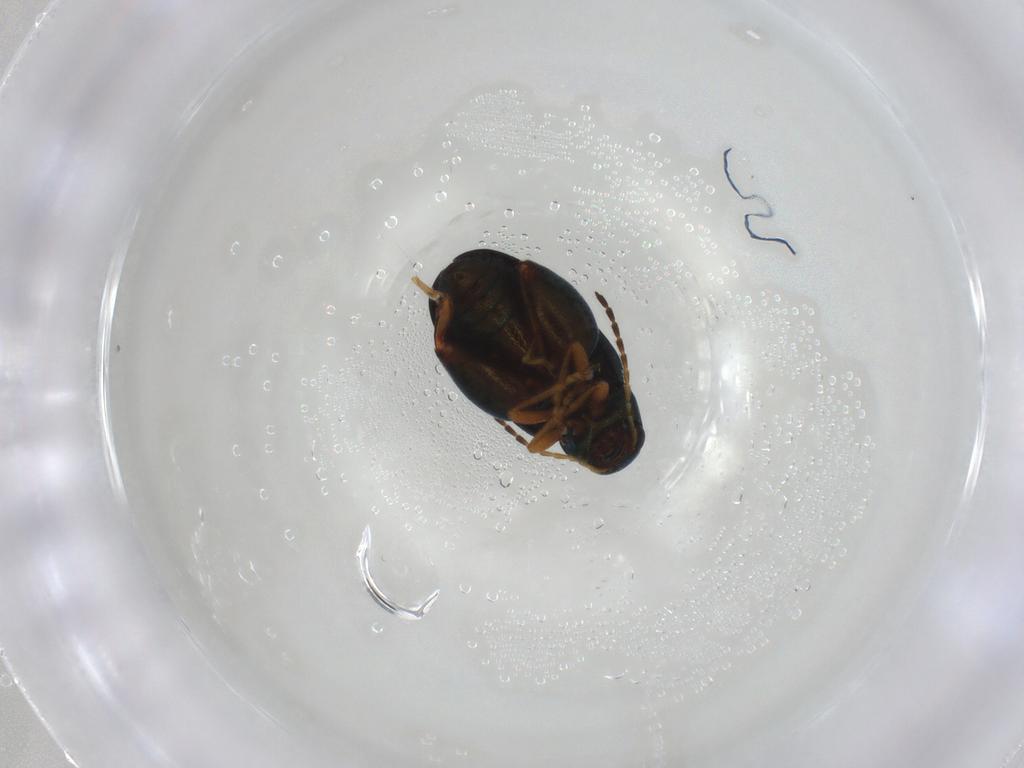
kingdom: Animalia
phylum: Arthropoda
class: Insecta
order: Coleoptera
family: Chrysomelidae
